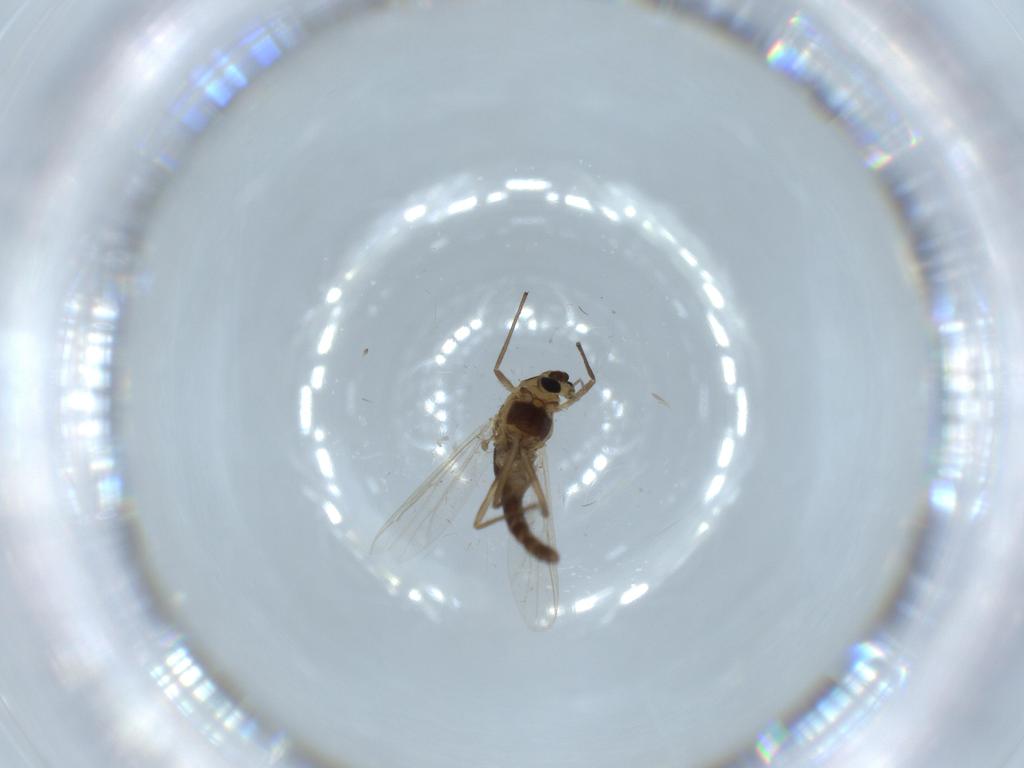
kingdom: Animalia
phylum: Arthropoda
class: Insecta
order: Diptera
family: Chironomidae
